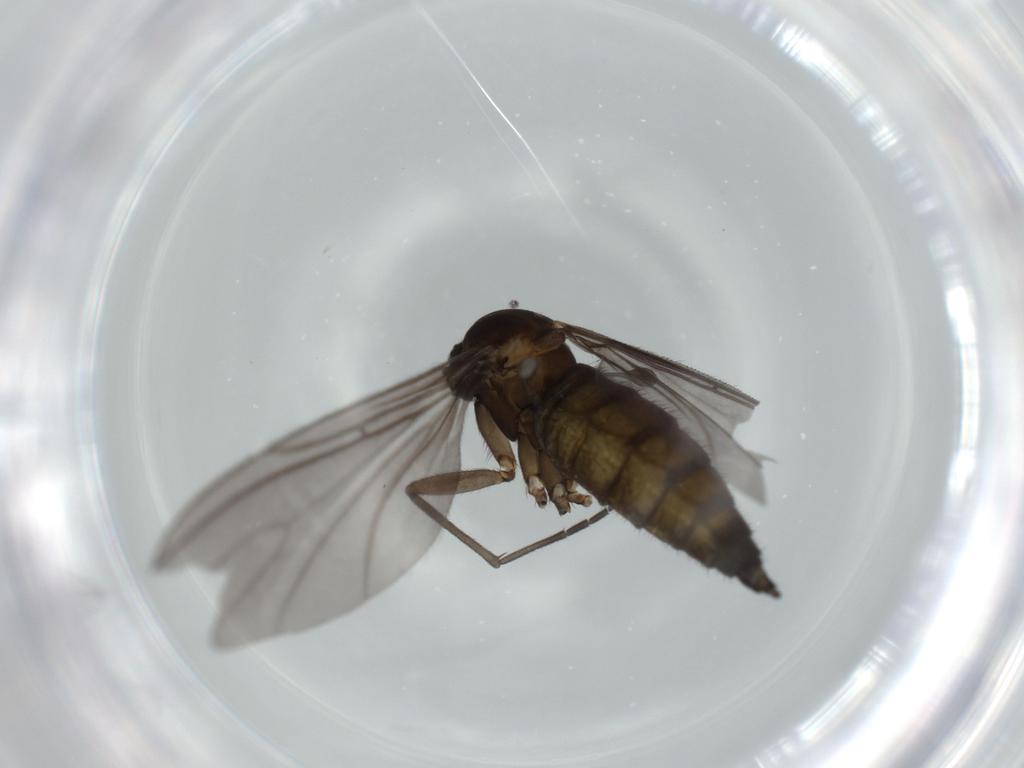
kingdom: Animalia
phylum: Arthropoda
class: Insecta
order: Diptera
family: Sciaridae
